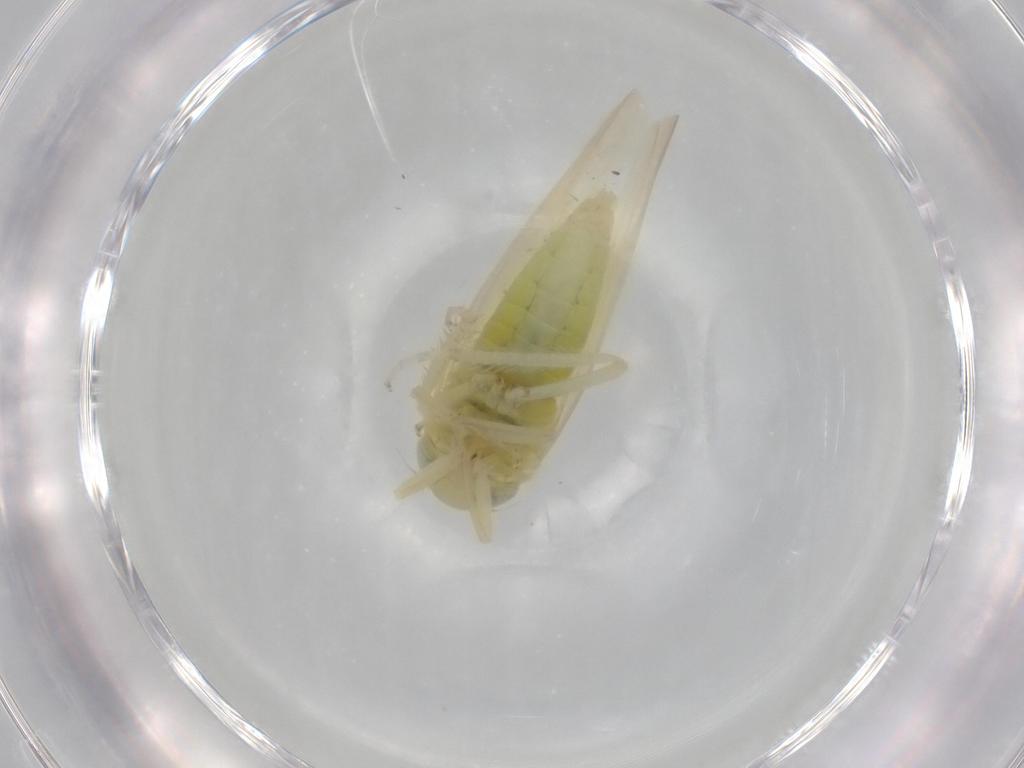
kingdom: Animalia
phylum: Arthropoda
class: Insecta
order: Hemiptera
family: Cicadellidae
